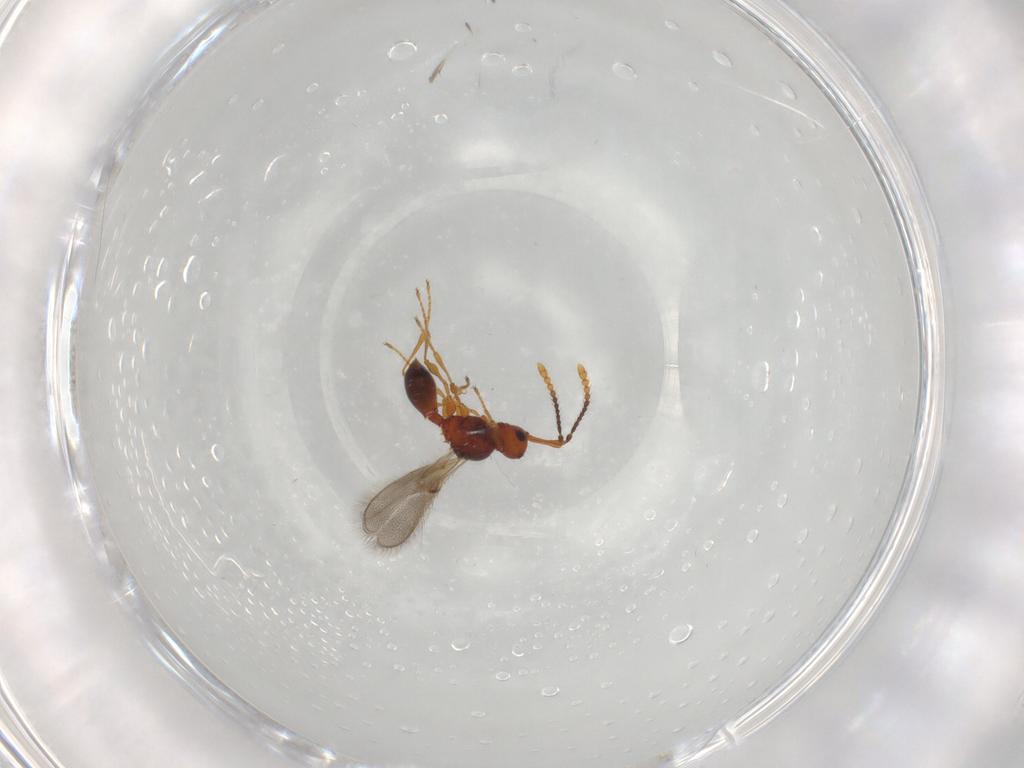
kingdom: Animalia
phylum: Arthropoda
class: Insecta
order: Hymenoptera
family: Diapriidae
